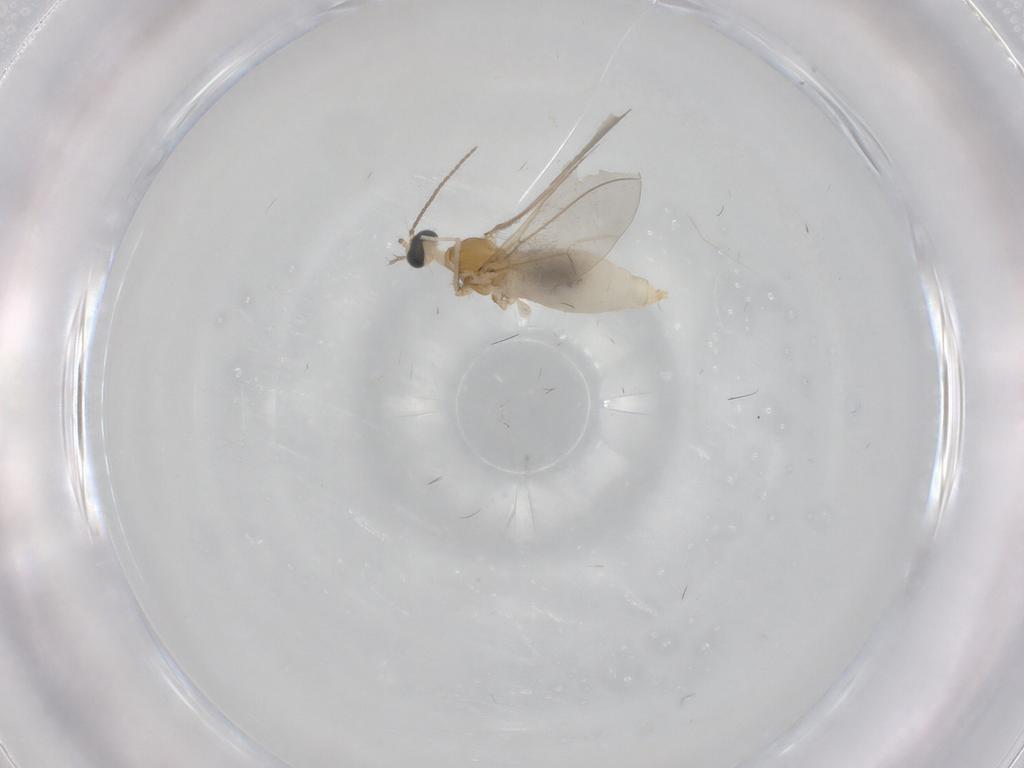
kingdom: Animalia
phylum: Arthropoda
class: Insecta
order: Diptera
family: Cecidomyiidae
